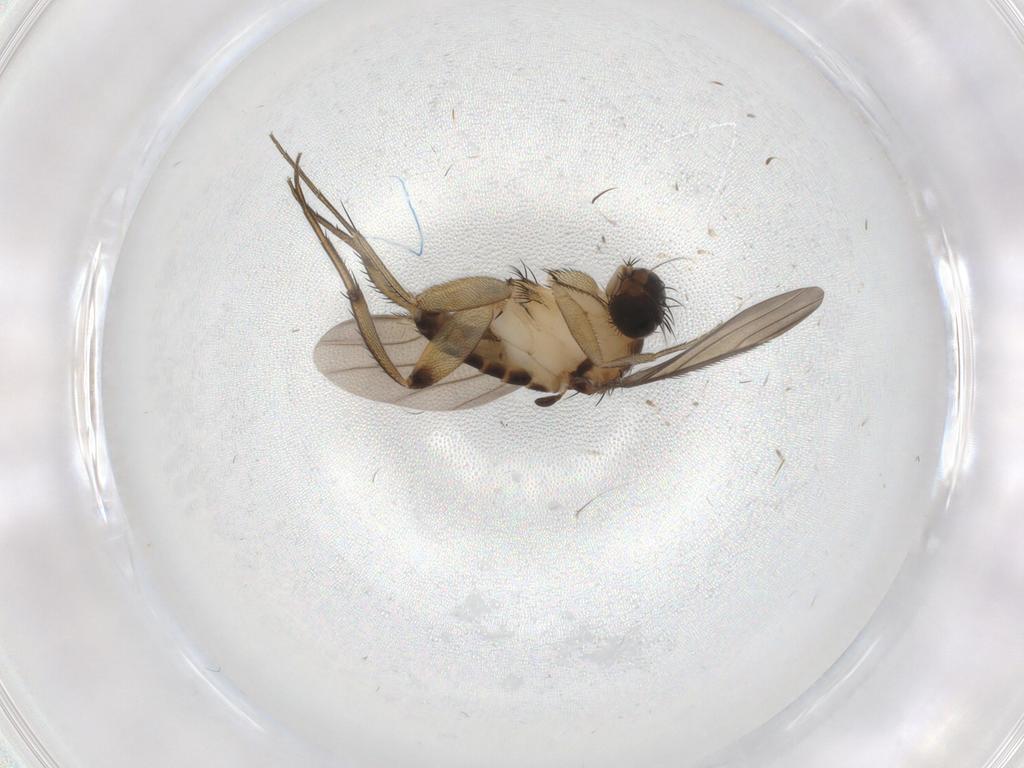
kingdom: Animalia
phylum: Arthropoda
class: Insecta
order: Diptera
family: Phoridae
